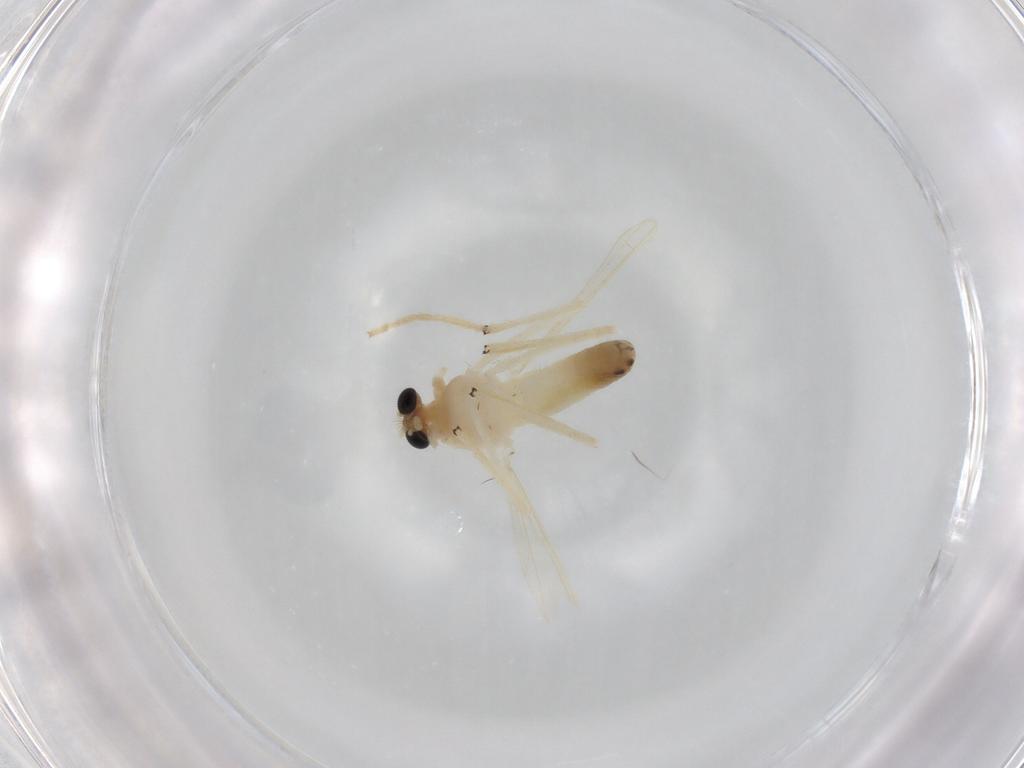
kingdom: Animalia
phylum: Arthropoda
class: Insecta
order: Diptera
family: Chironomidae
